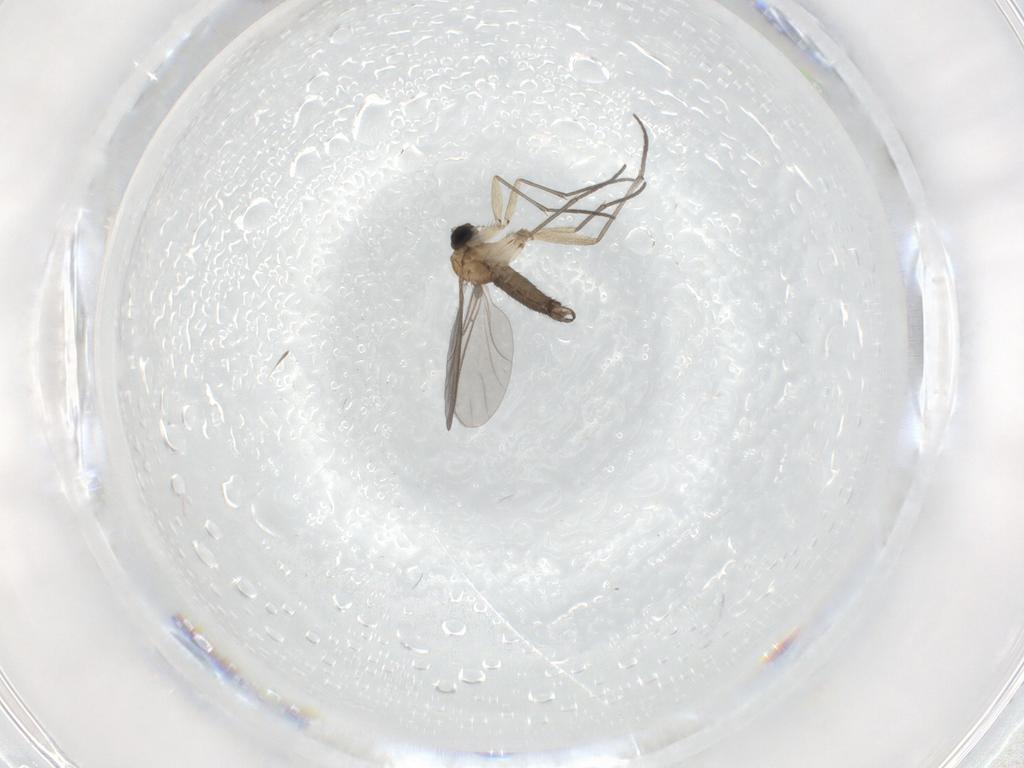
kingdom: Animalia
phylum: Arthropoda
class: Insecta
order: Diptera
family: Sciaridae
